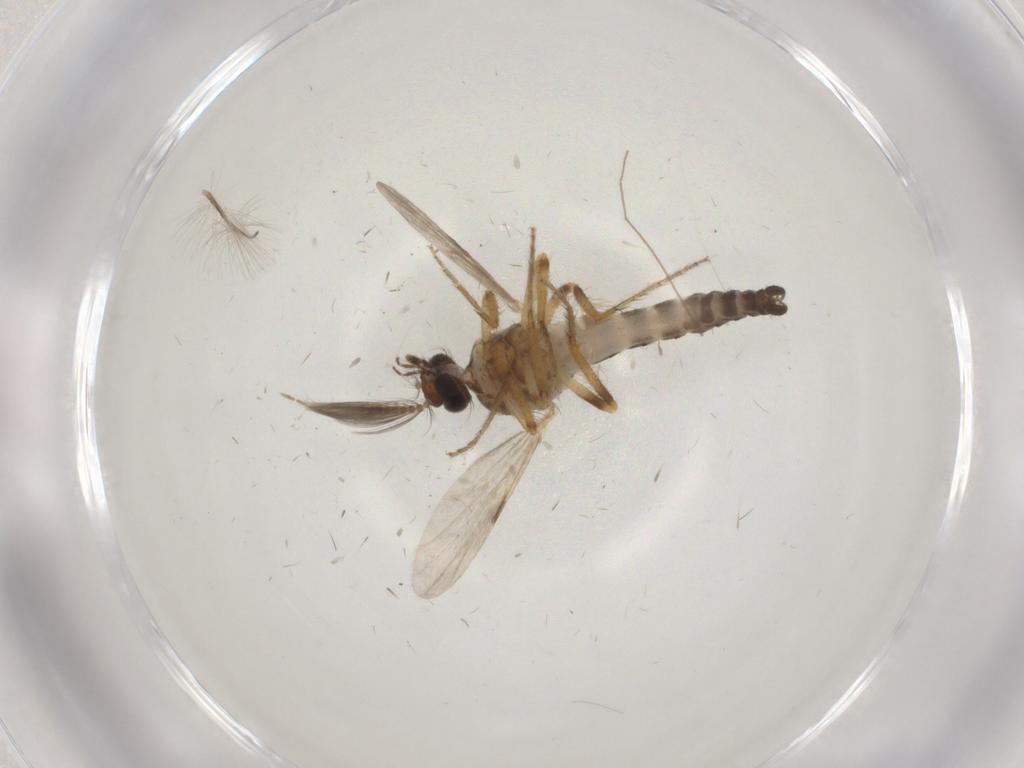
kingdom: Animalia
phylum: Arthropoda
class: Insecta
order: Diptera
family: Ceratopogonidae
